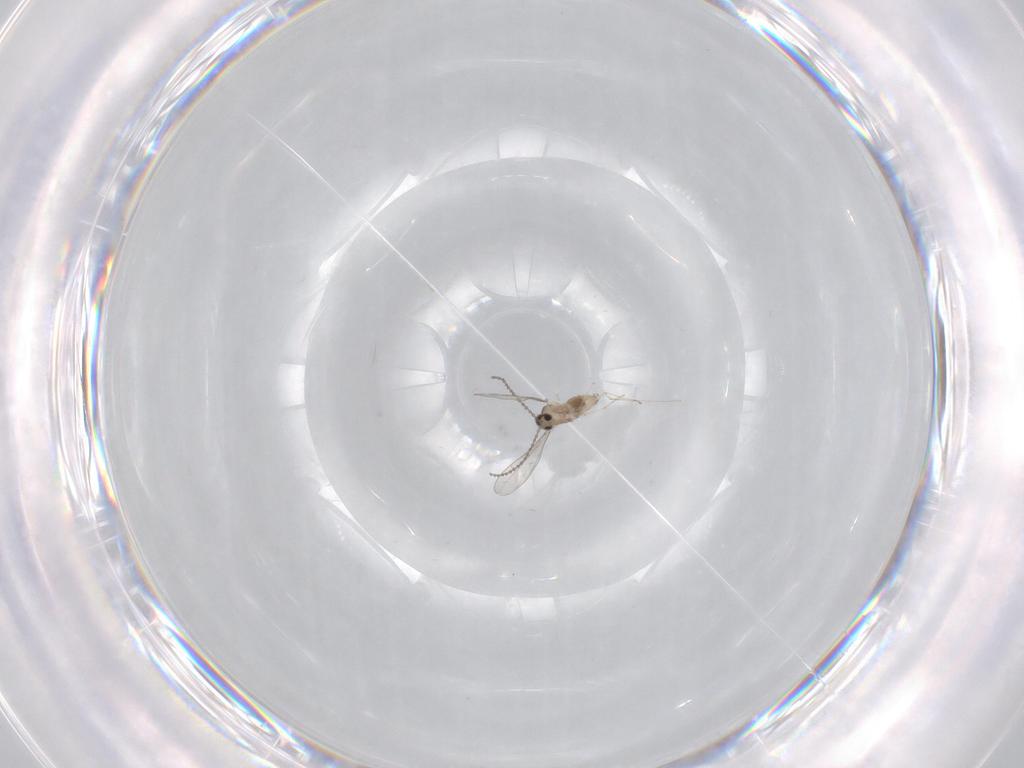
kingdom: Animalia
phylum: Arthropoda
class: Insecta
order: Diptera
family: Cecidomyiidae
